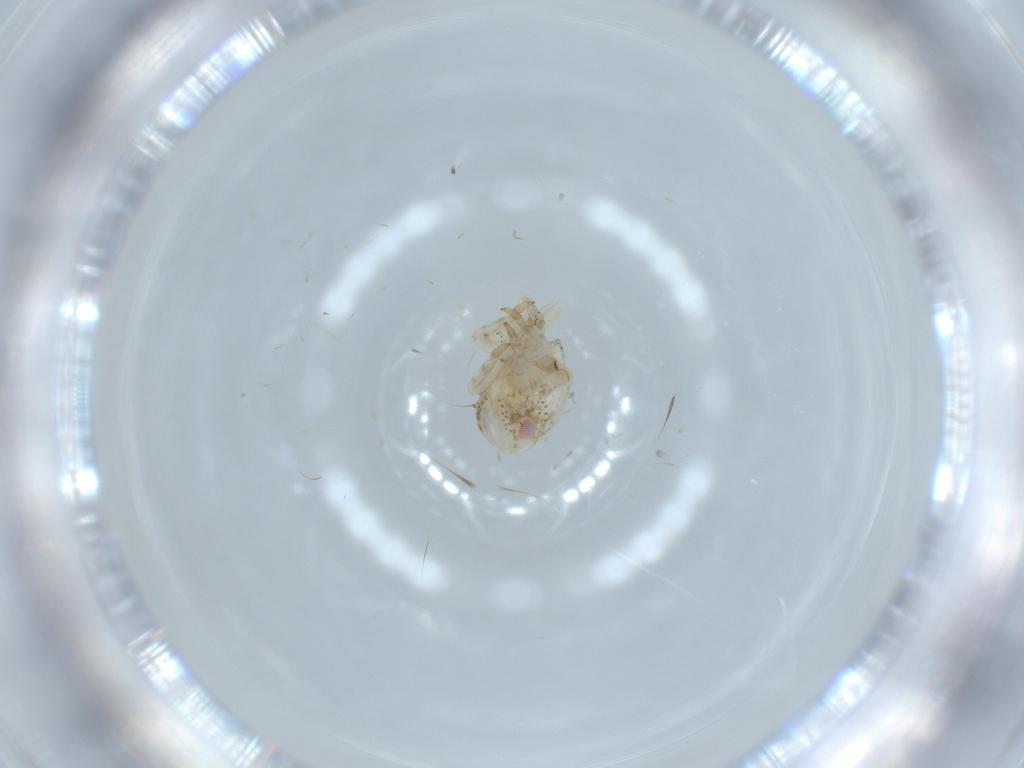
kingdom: Animalia
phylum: Arthropoda
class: Insecta
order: Hemiptera
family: Acanaloniidae
